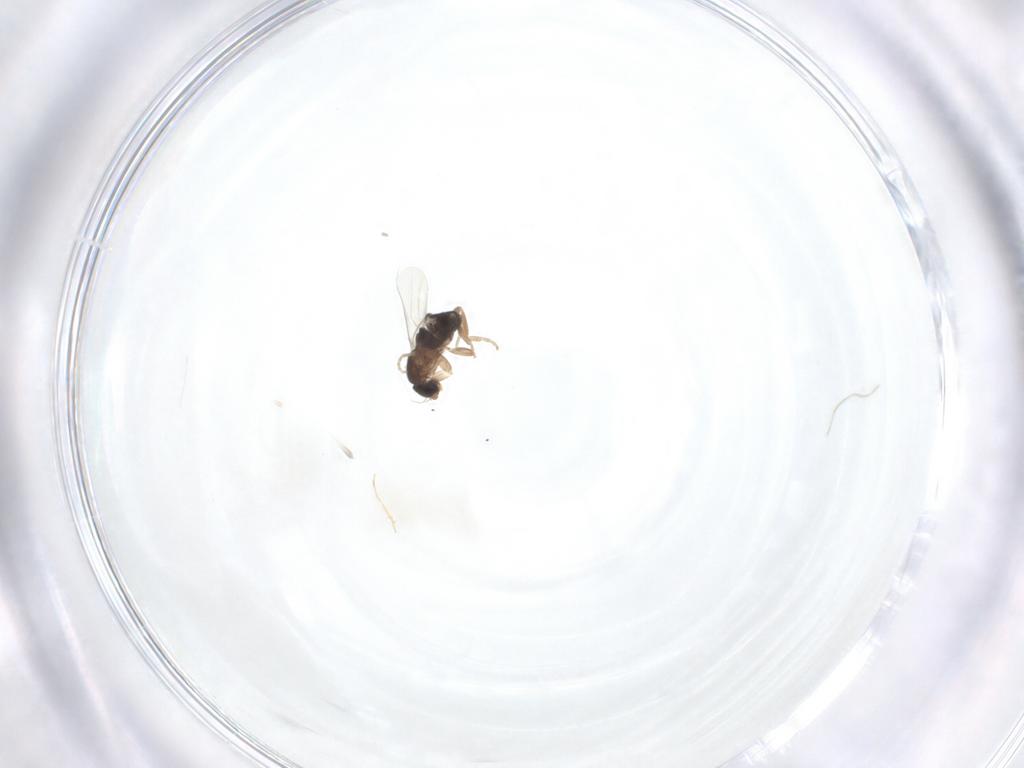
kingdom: Animalia
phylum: Arthropoda
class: Insecta
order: Diptera
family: Phoridae
